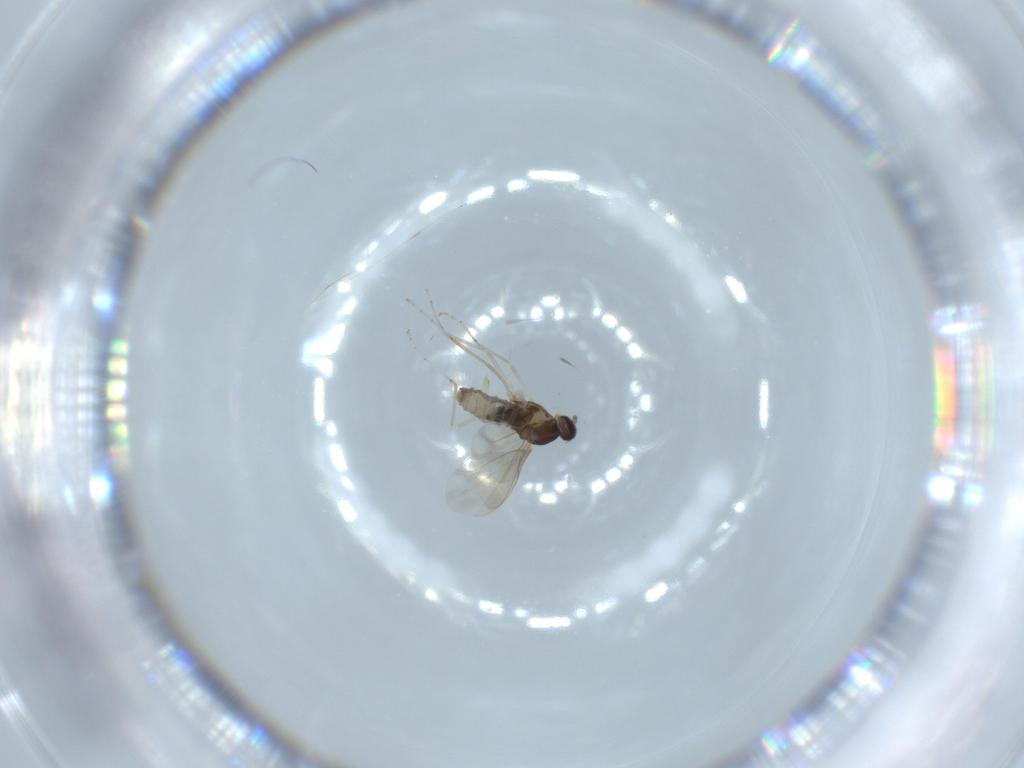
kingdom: Animalia
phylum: Arthropoda
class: Insecta
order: Diptera
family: Cecidomyiidae
